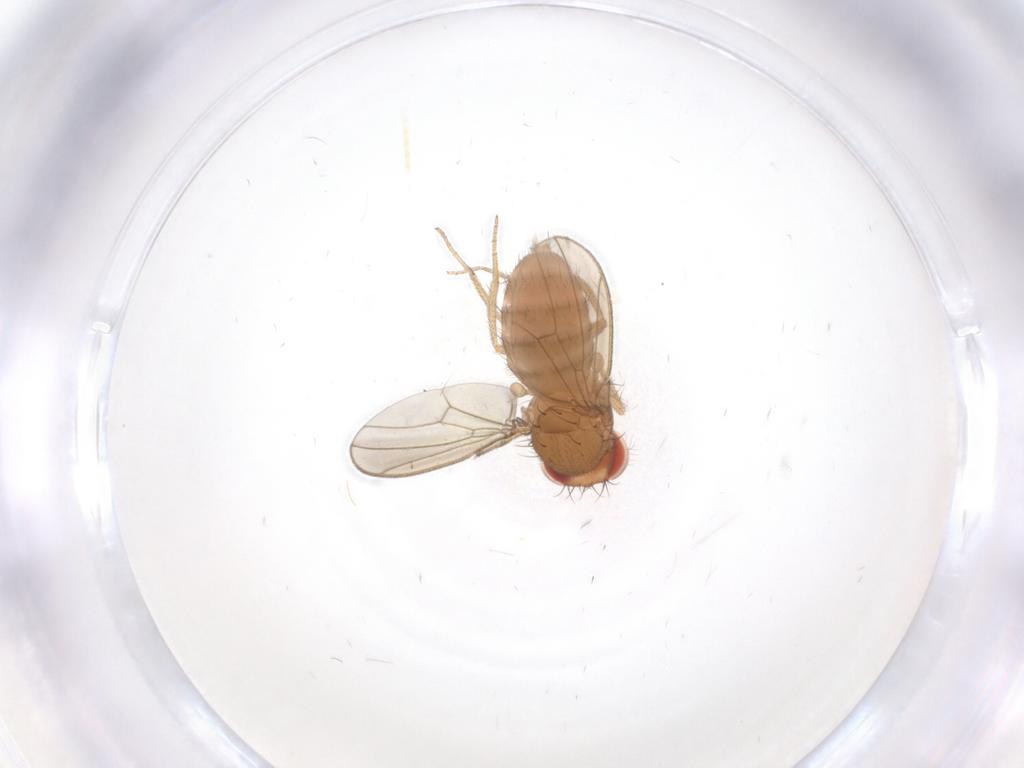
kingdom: Animalia
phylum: Arthropoda
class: Insecta
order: Diptera
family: Drosophilidae
